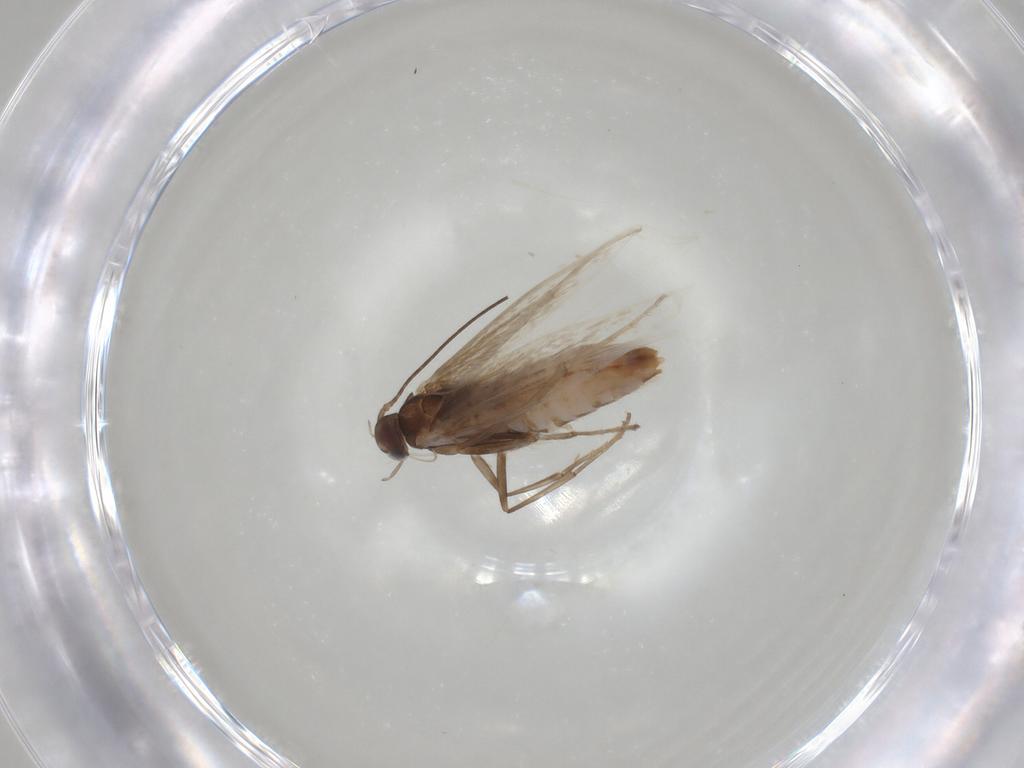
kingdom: Animalia
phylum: Arthropoda
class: Insecta
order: Lepidoptera
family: Coleophoridae
